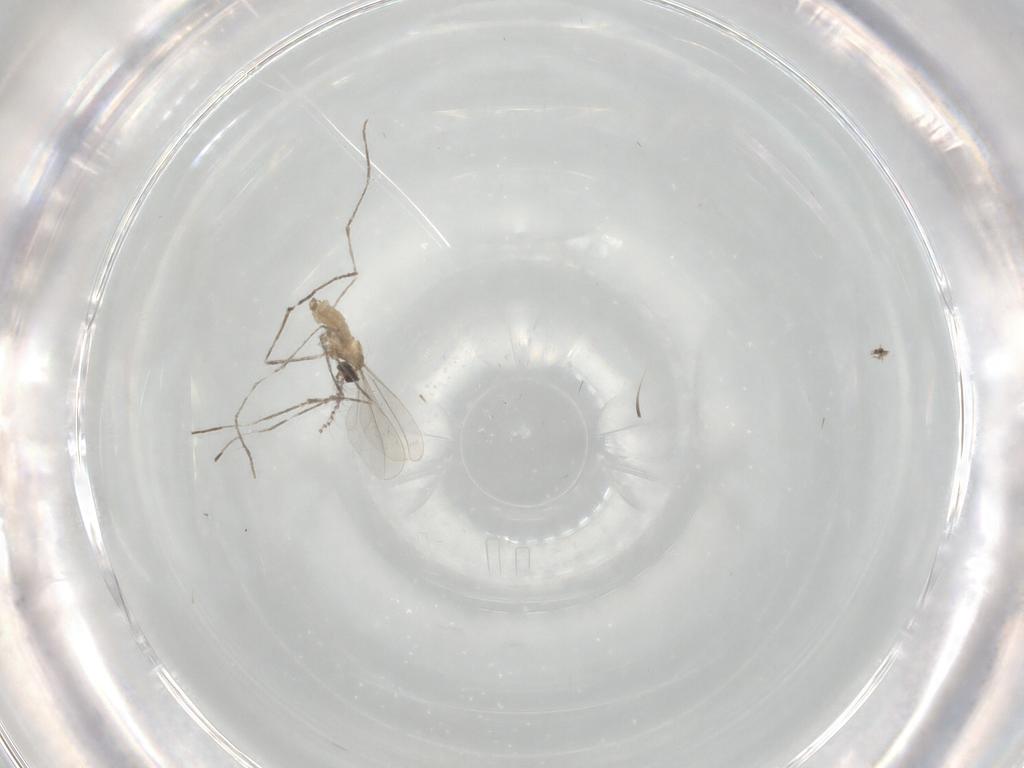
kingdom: Animalia
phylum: Arthropoda
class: Insecta
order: Diptera
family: Cecidomyiidae
